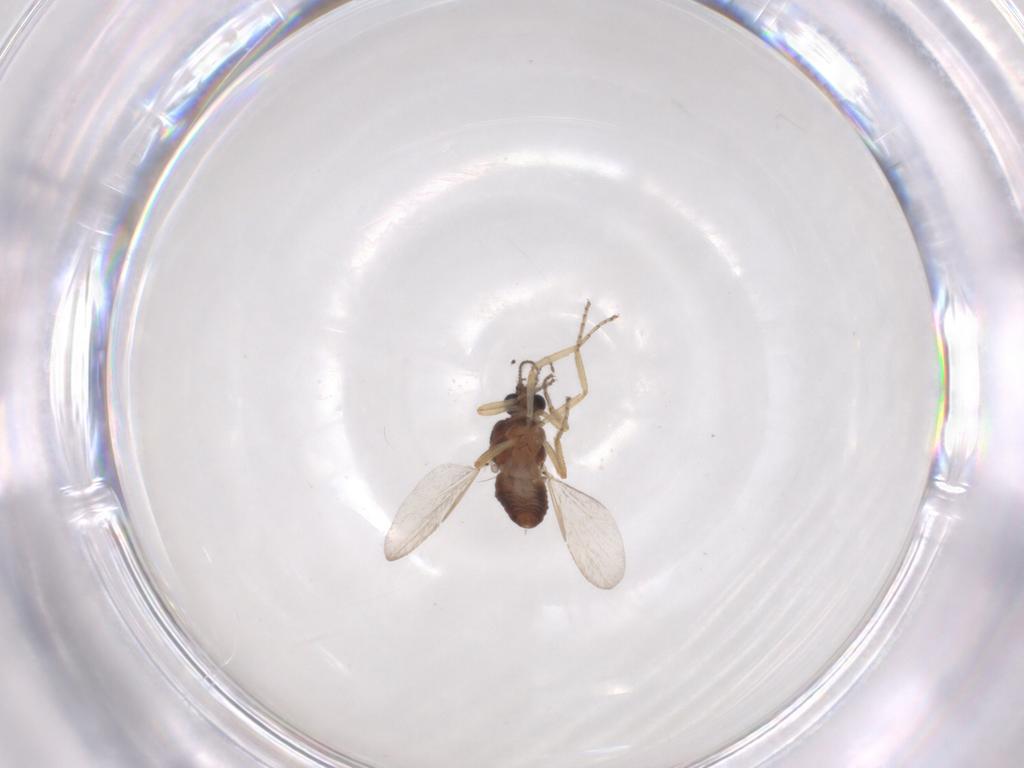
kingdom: Animalia
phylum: Arthropoda
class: Insecta
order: Diptera
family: Ceratopogonidae
